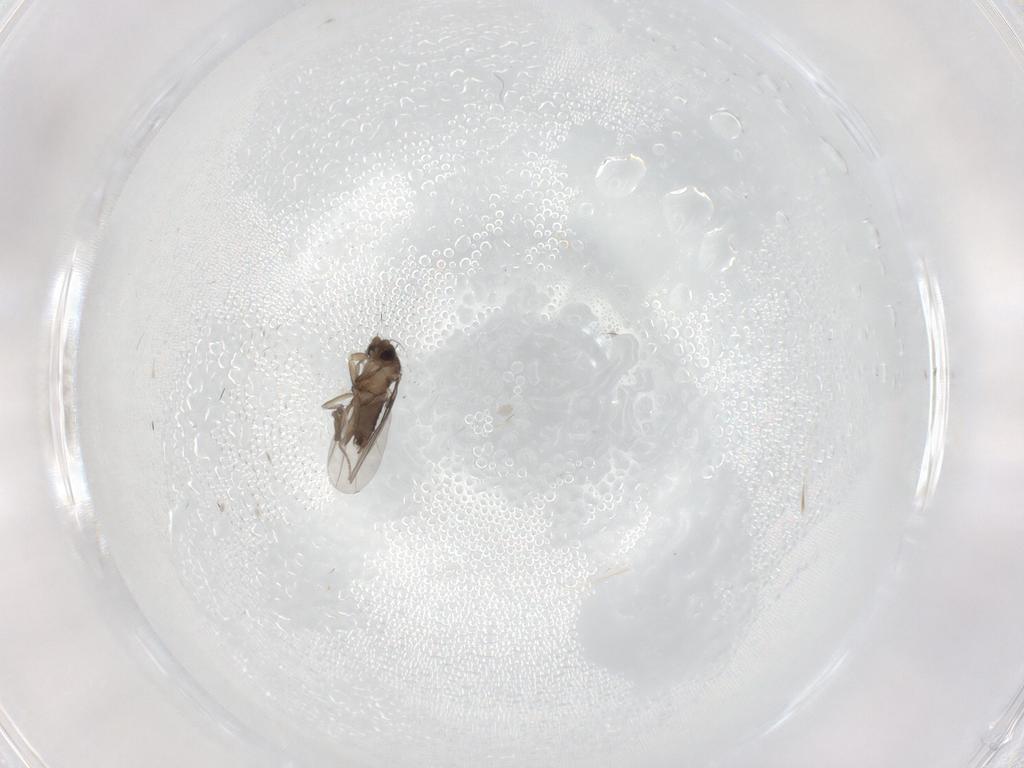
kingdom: Animalia
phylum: Arthropoda
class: Insecta
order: Diptera
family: Phoridae
